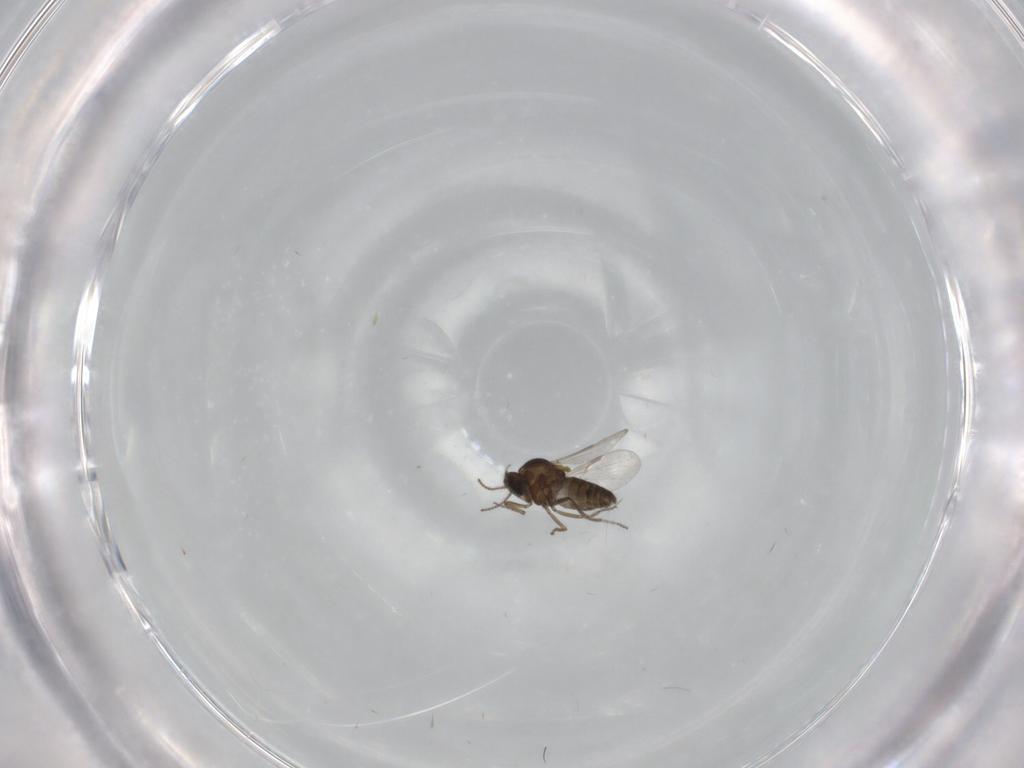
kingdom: Animalia
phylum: Arthropoda
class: Insecta
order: Diptera
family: Ceratopogonidae
